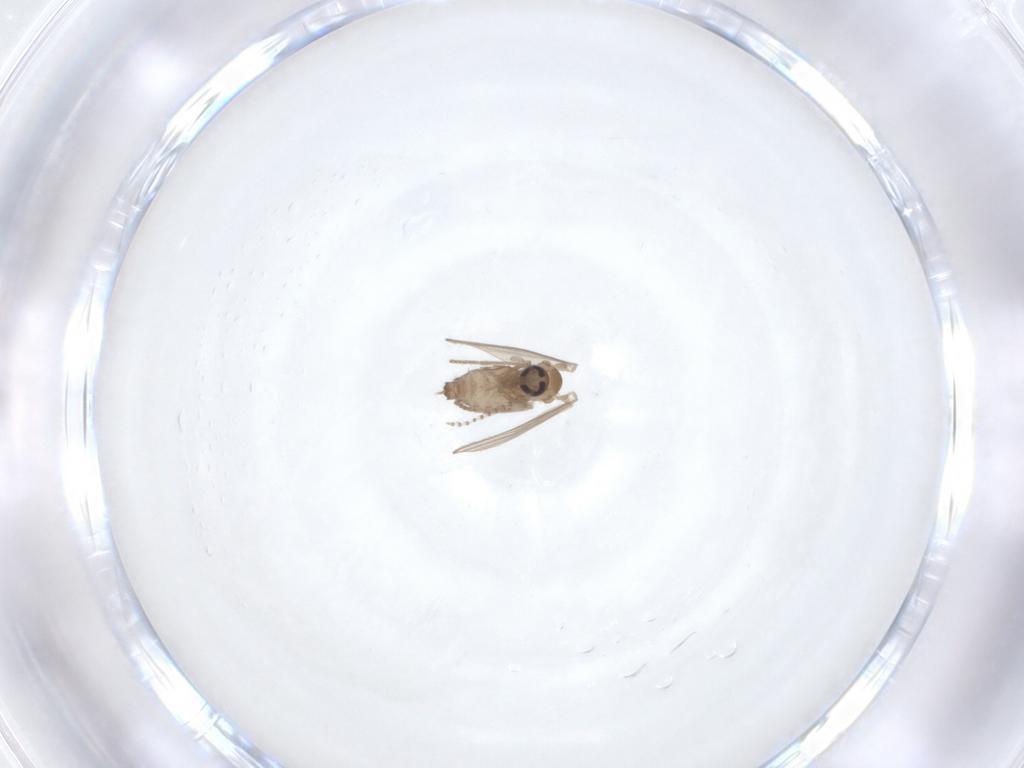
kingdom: Animalia
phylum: Arthropoda
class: Insecta
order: Diptera
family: Psychodidae
